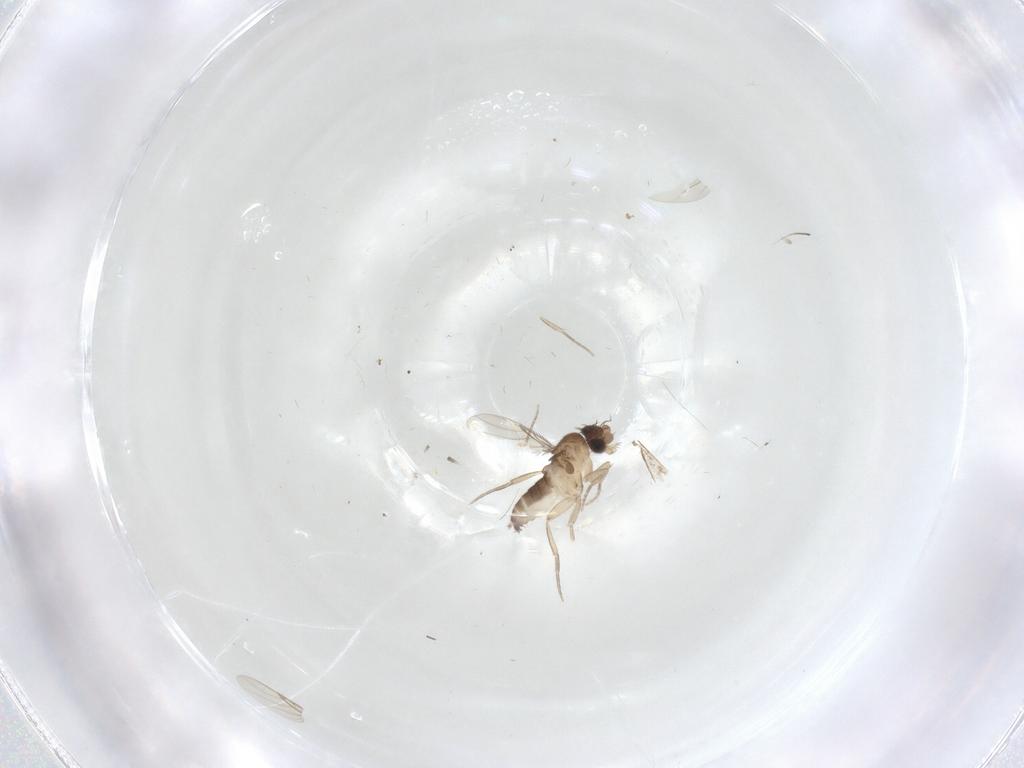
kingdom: Animalia
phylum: Arthropoda
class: Insecta
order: Diptera
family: Phoridae
